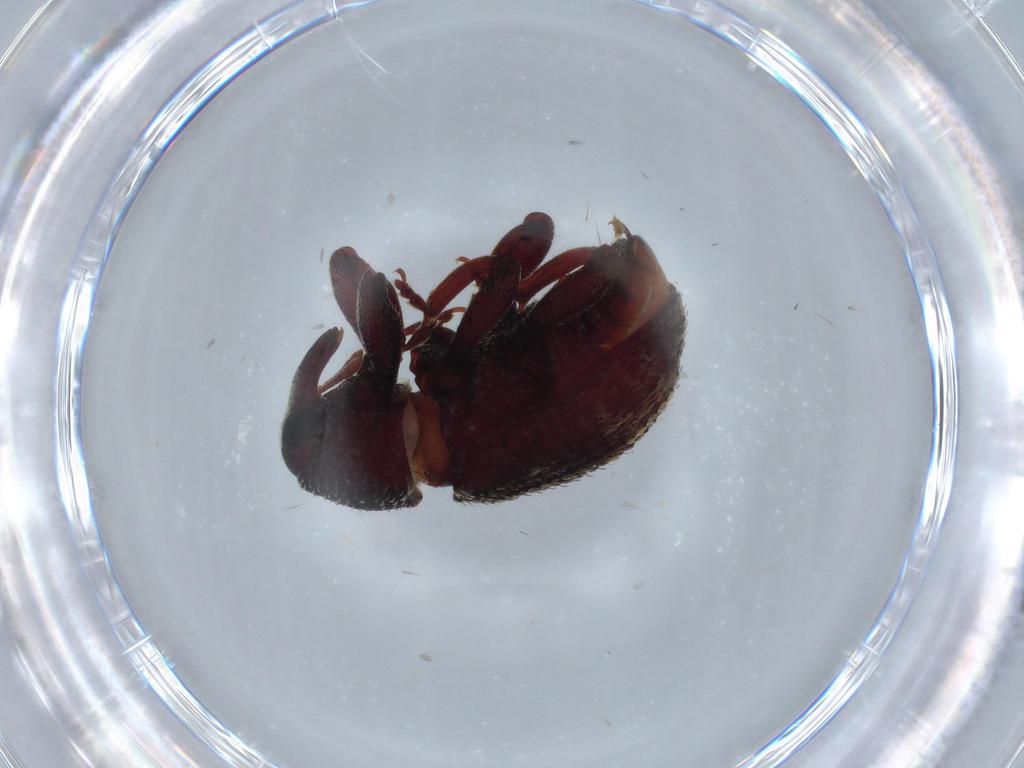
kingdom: Animalia
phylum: Arthropoda
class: Insecta
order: Coleoptera
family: Curculionidae
